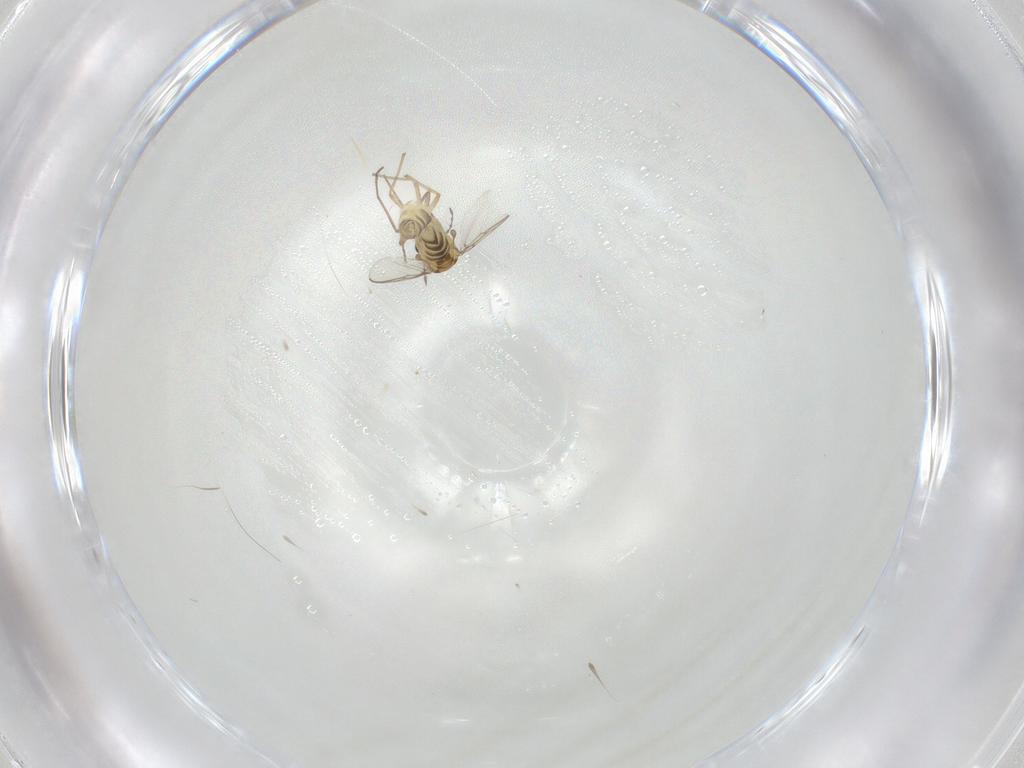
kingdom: Animalia
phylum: Arthropoda
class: Insecta
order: Diptera
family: Chironomidae
